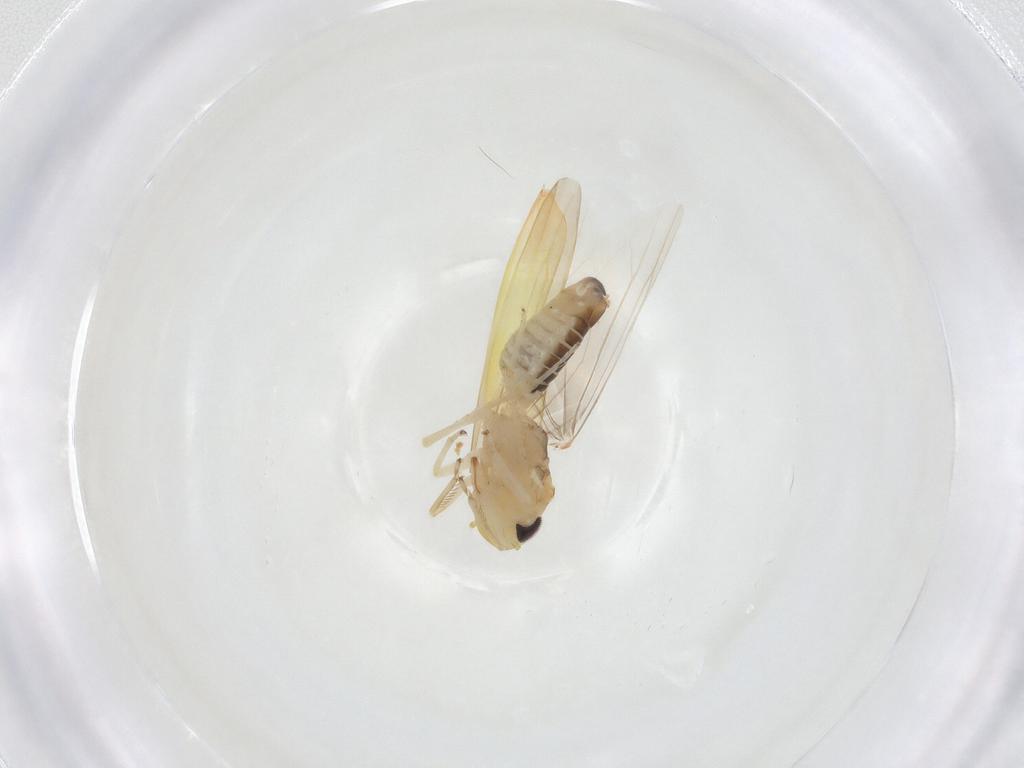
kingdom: Animalia
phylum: Arthropoda
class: Insecta
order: Hemiptera
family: Cicadellidae
